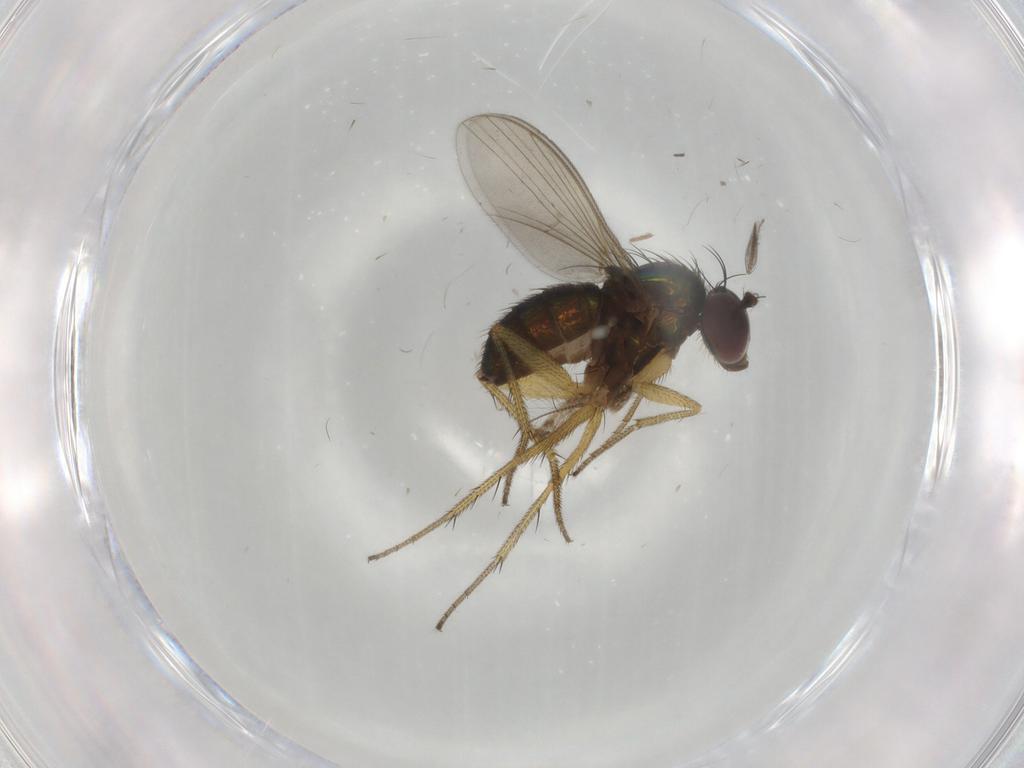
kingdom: Animalia
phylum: Arthropoda
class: Insecta
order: Diptera
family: Dolichopodidae
